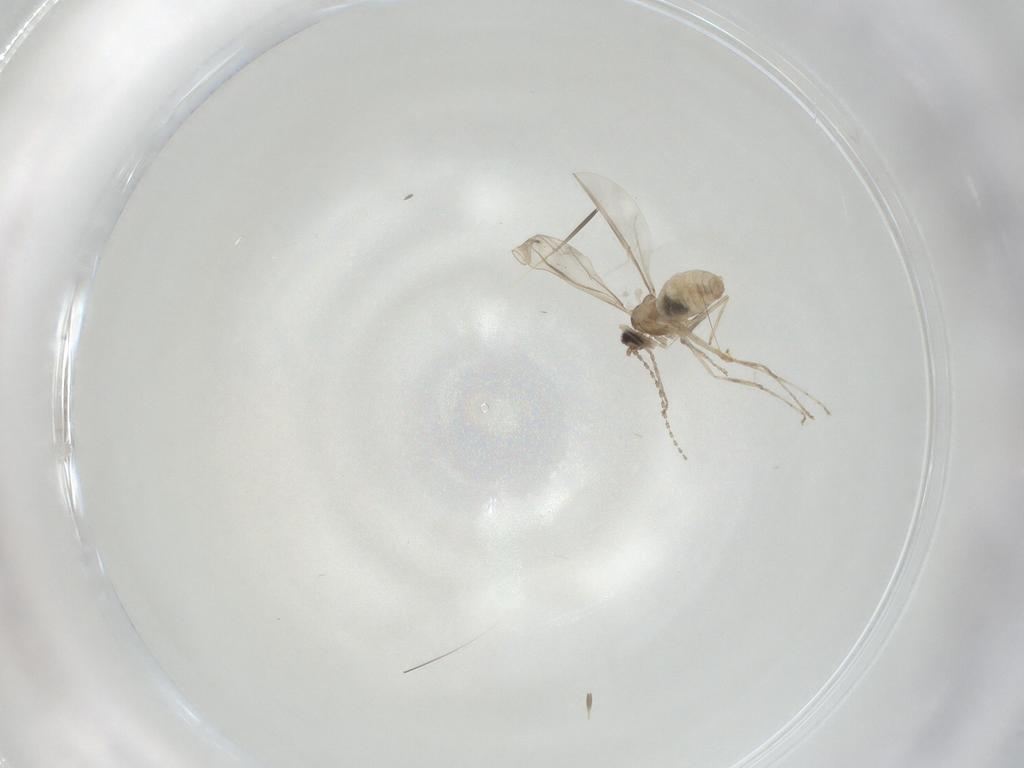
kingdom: Animalia
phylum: Arthropoda
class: Insecta
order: Diptera
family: Cecidomyiidae
